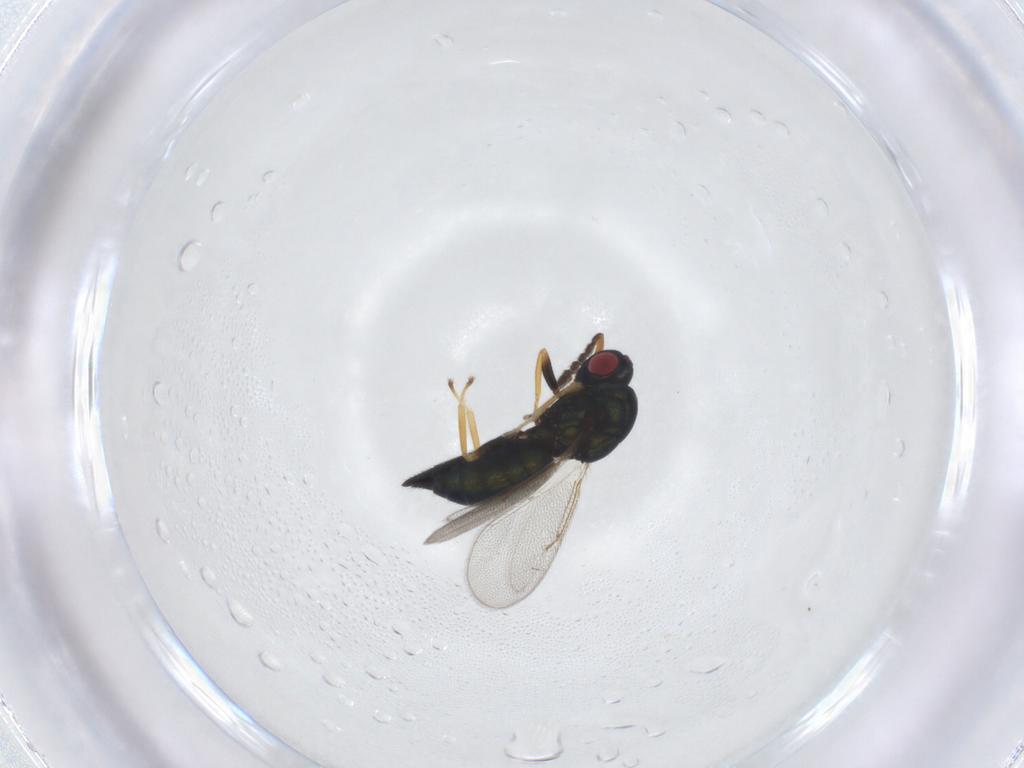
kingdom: Animalia
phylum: Arthropoda
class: Insecta
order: Hymenoptera
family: Eulophidae
